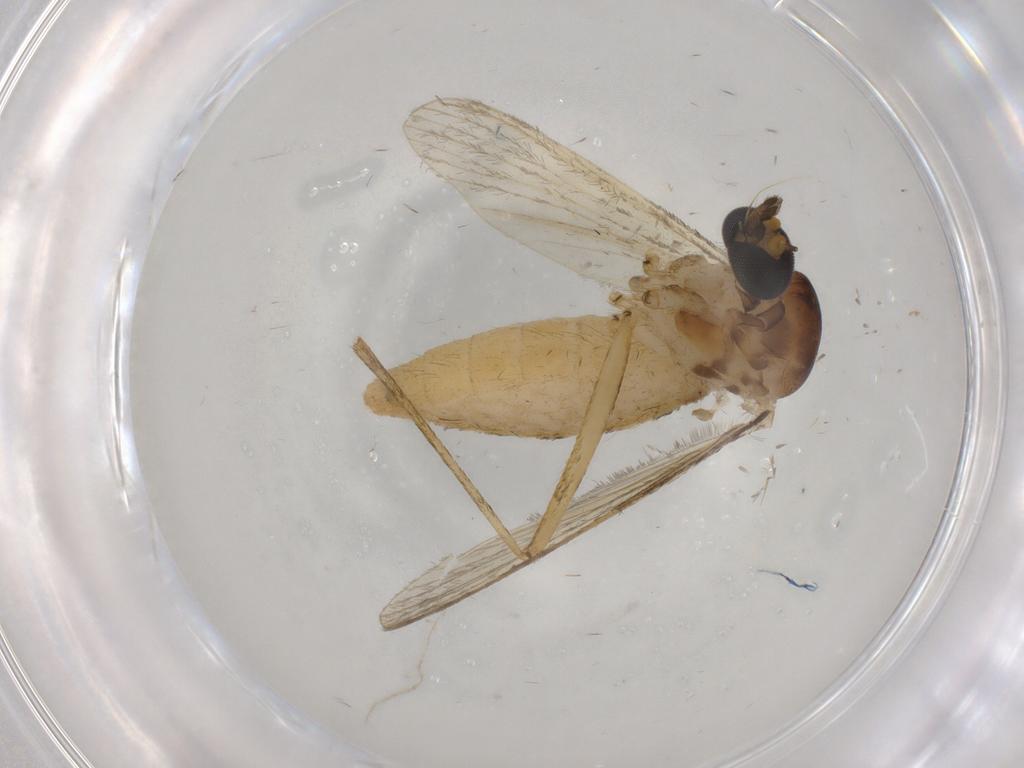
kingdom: Animalia
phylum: Arthropoda
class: Insecta
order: Diptera
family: Culicidae
